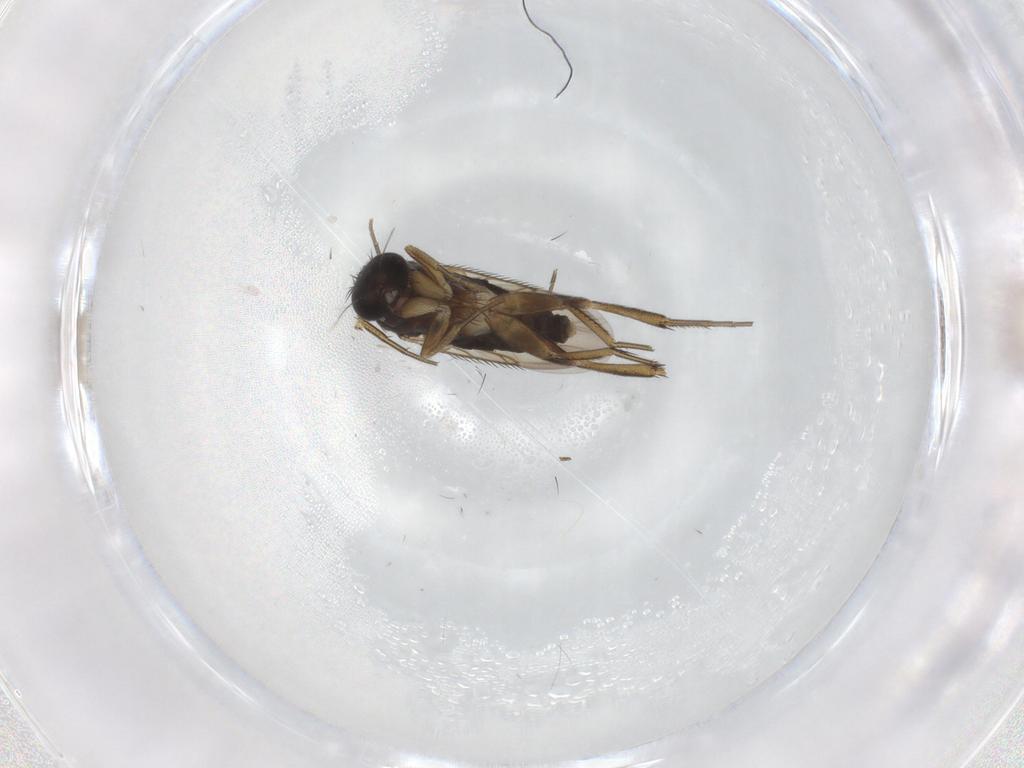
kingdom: Animalia
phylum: Arthropoda
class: Insecta
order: Diptera
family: Phoridae
